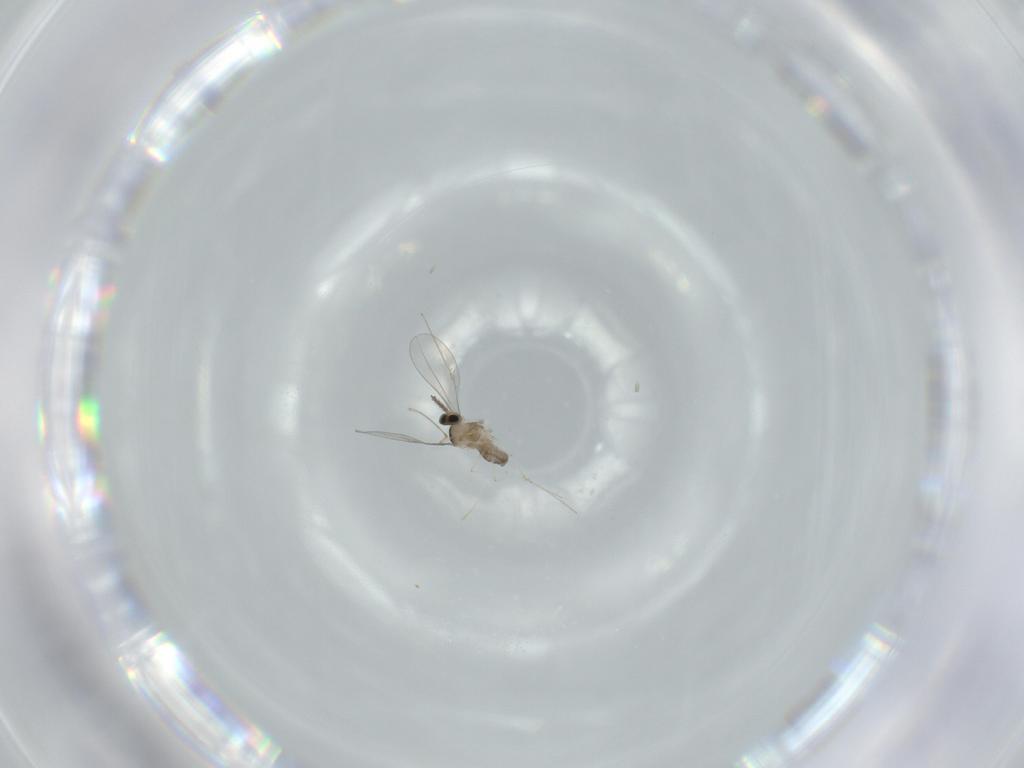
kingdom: Animalia
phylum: Arthropoda
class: Insecta
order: Diptera
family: Cecidomyiidae
